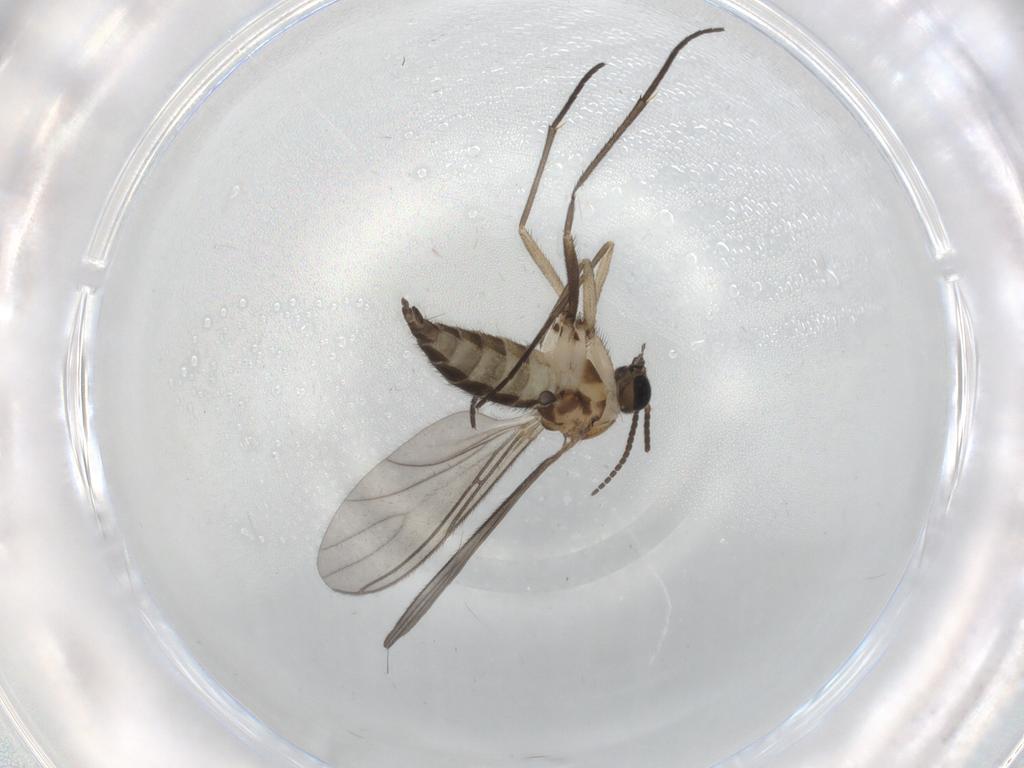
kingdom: Animalia
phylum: Arthropoda
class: Insecta
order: Diptera
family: Sciaridae
